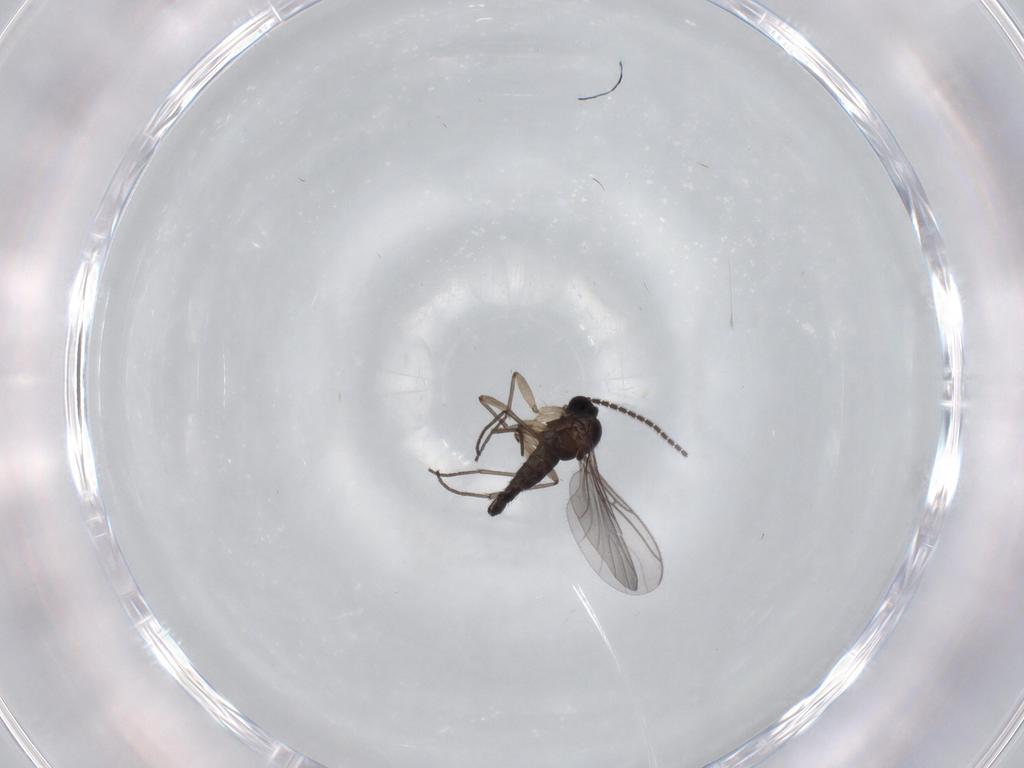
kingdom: Animalia
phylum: Arthropoda
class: Insecta
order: Diptera
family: Sciaridae
